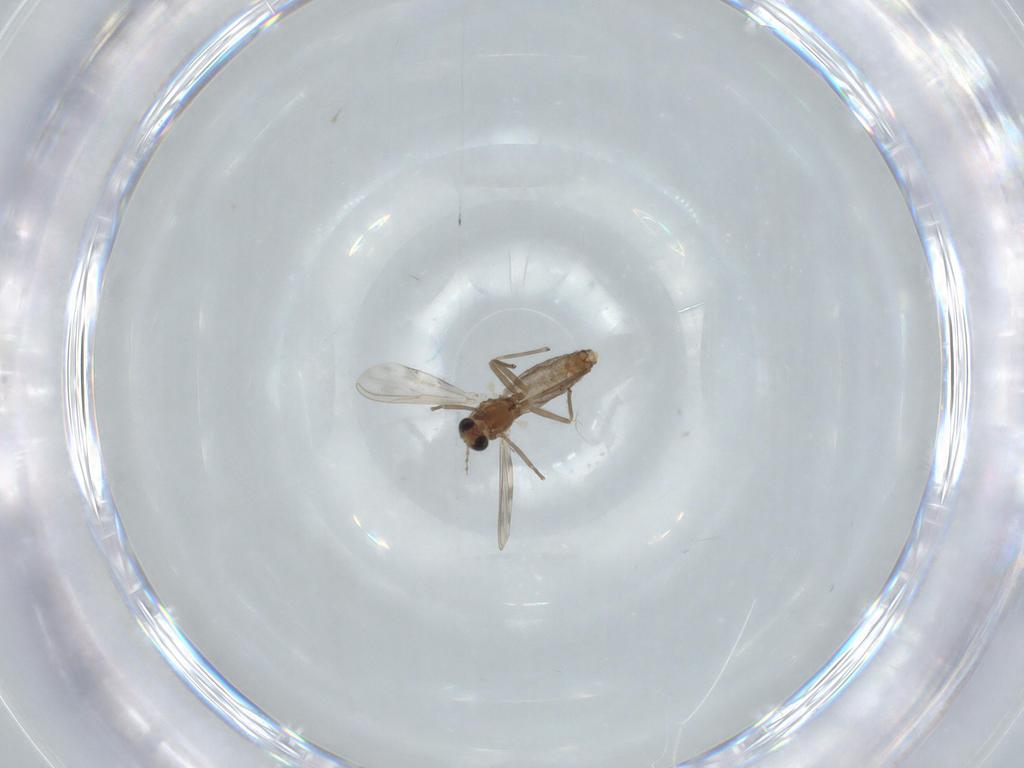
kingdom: Animalia
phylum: Arthropoda
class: Insecta
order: Diptera
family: Chironomidae
